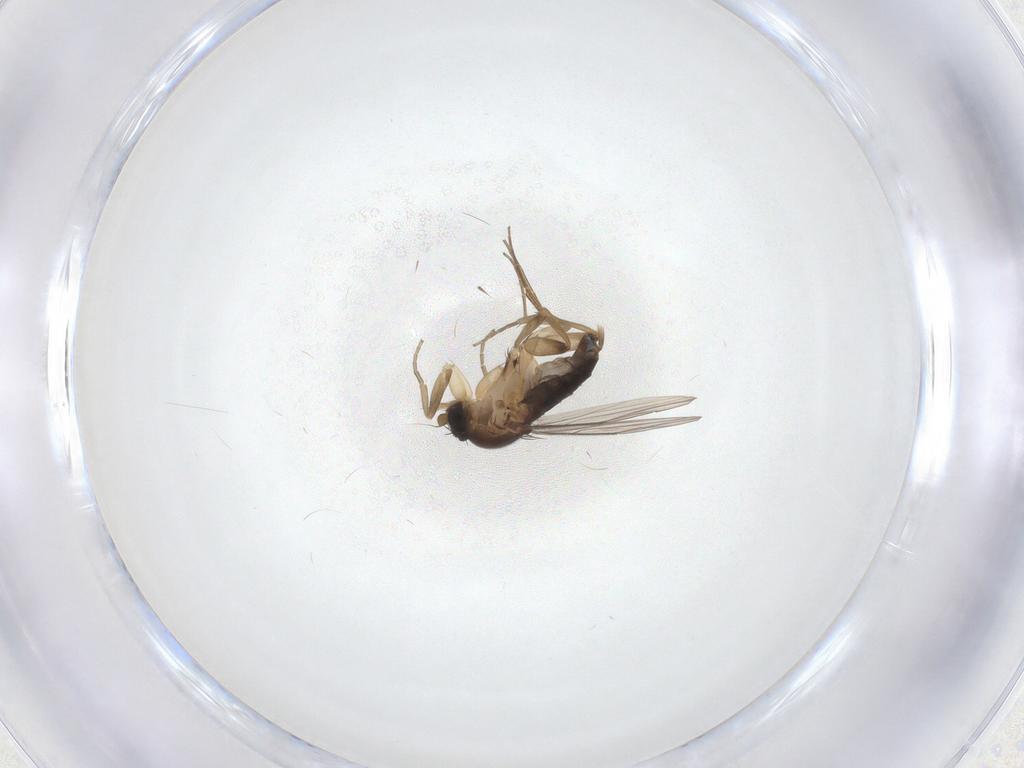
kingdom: Animalia
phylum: Arthropoda
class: Insecta
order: Diptera
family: Phoridae
